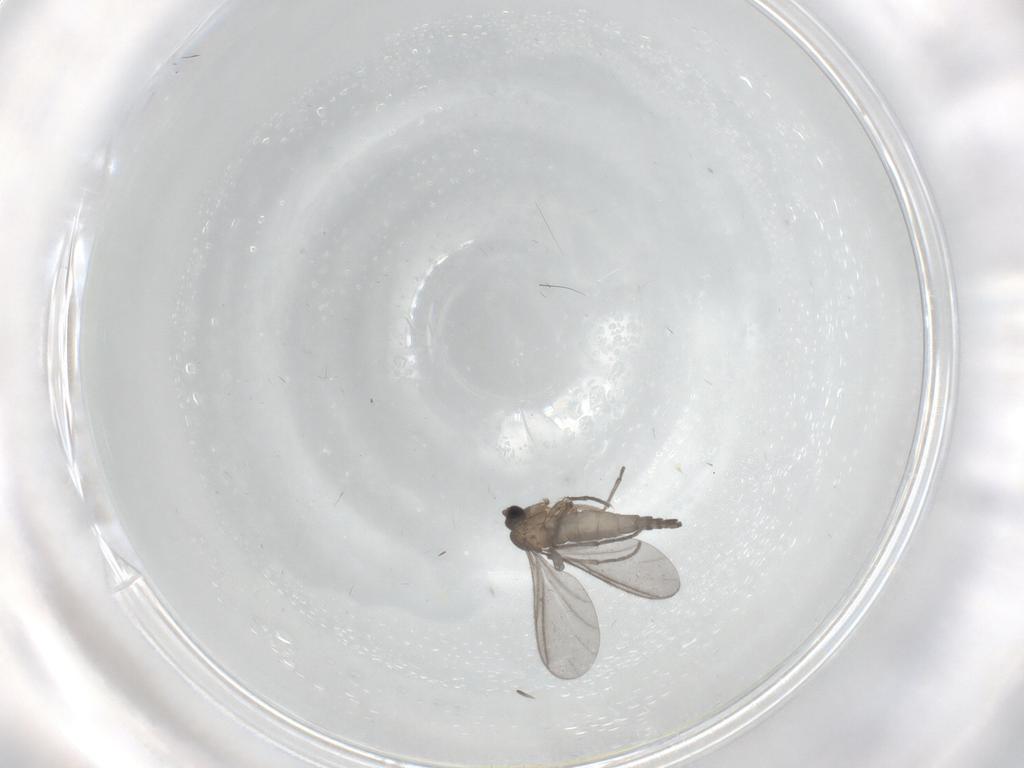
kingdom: Animalia
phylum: Arthropoda
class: Insecta
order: Diptera
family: Sciaridae
